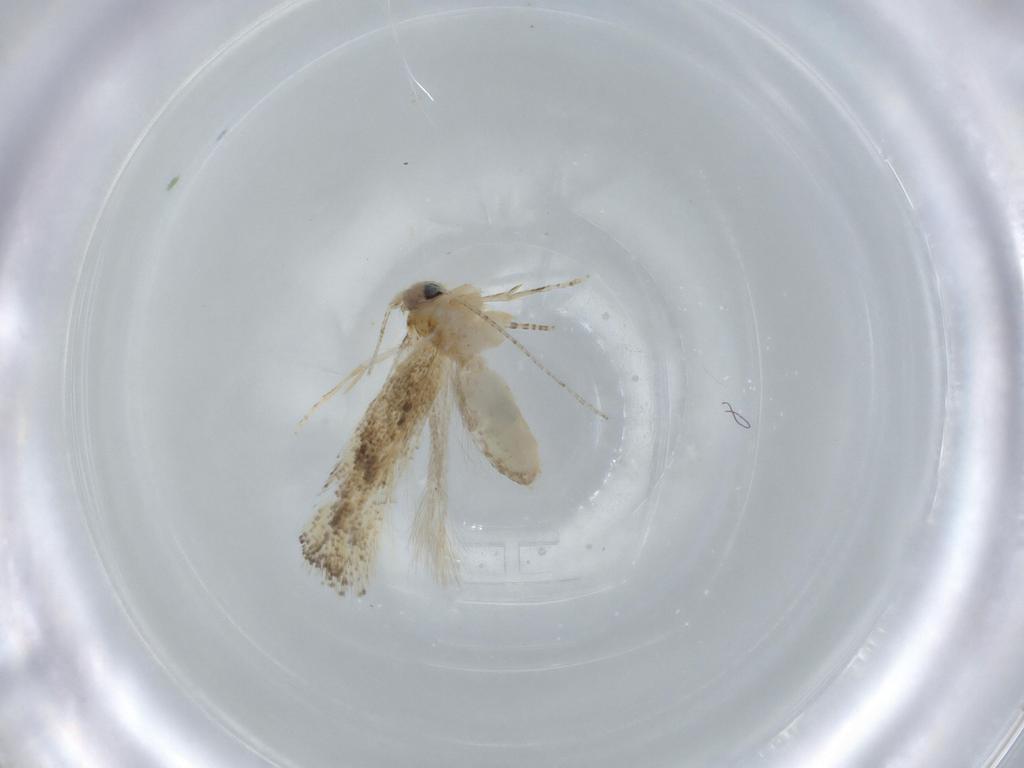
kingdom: Animalia
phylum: Arthropoda
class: Insecta
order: Lepidoptera
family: Bucculatricidae
